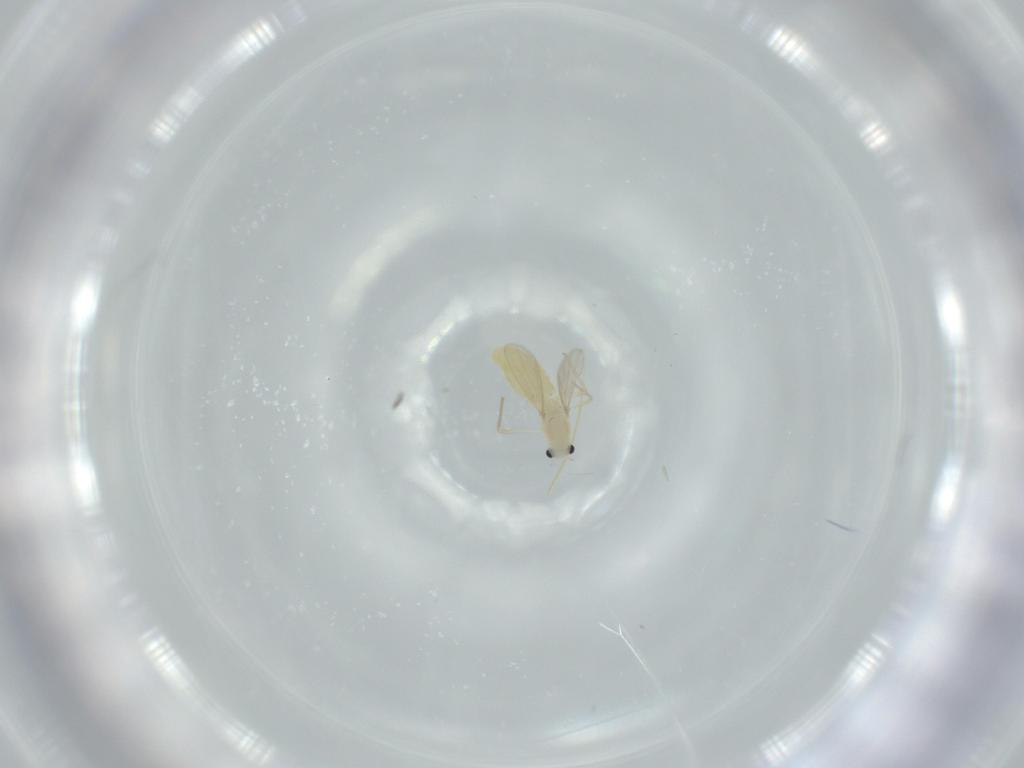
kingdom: Animalia
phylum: Arthropoda
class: Insecta
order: Diptera
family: Chironomidae
